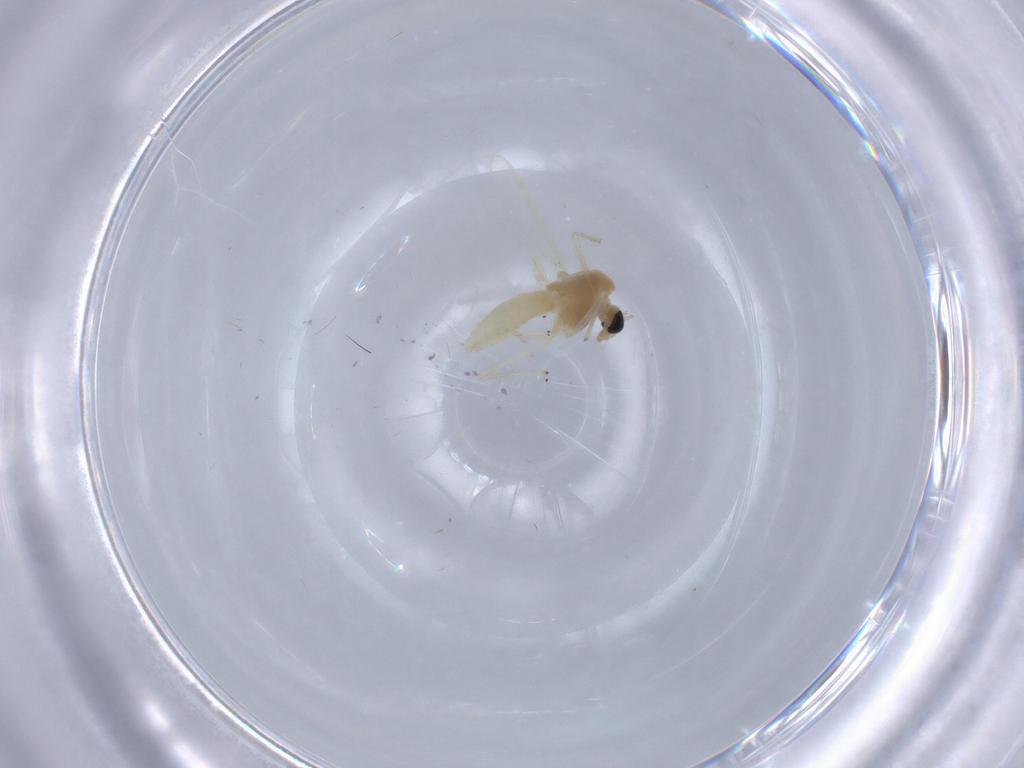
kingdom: Animalia
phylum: Arthropoda
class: Insecta
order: Diptera
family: Chironomidae
